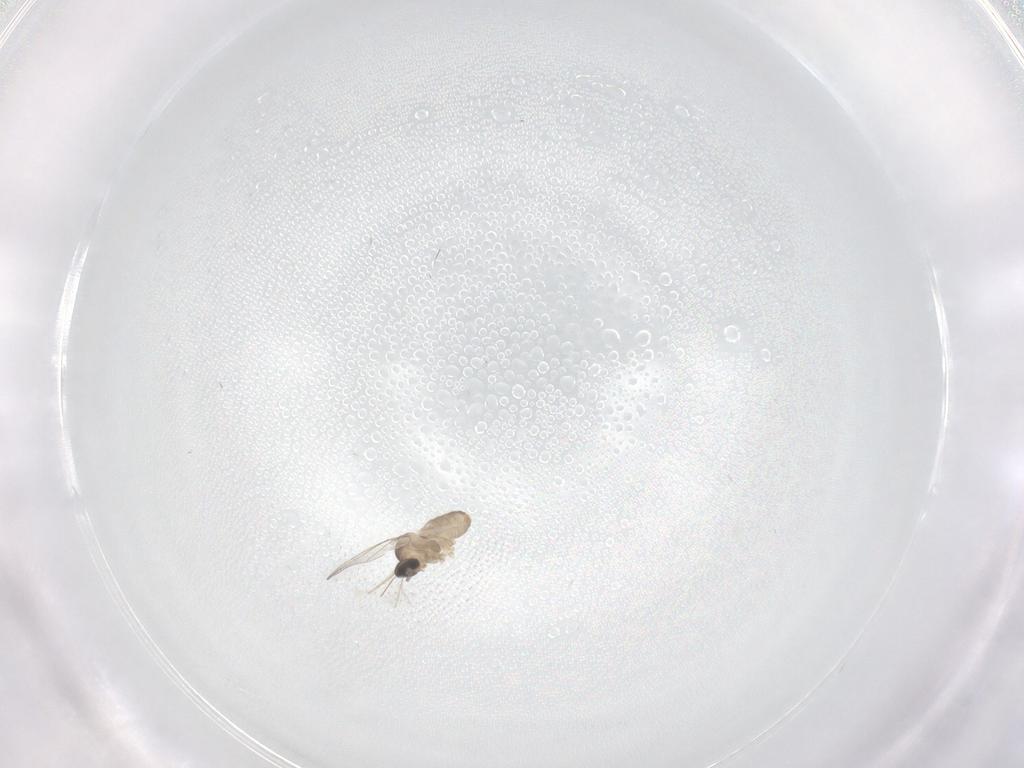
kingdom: Animalia
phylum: Arthropoda
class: Insecta
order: Diptera
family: Cecidomyiidae
